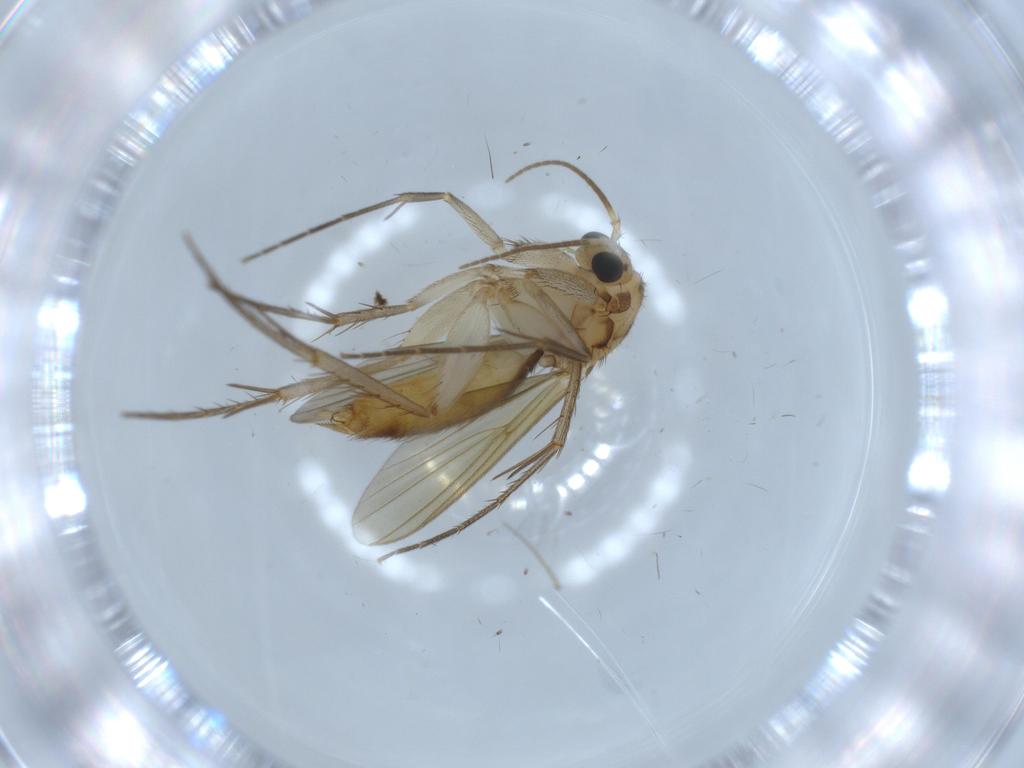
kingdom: Animalia
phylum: Arthropoda
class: Insecta
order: Diptera
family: Sciaridae
